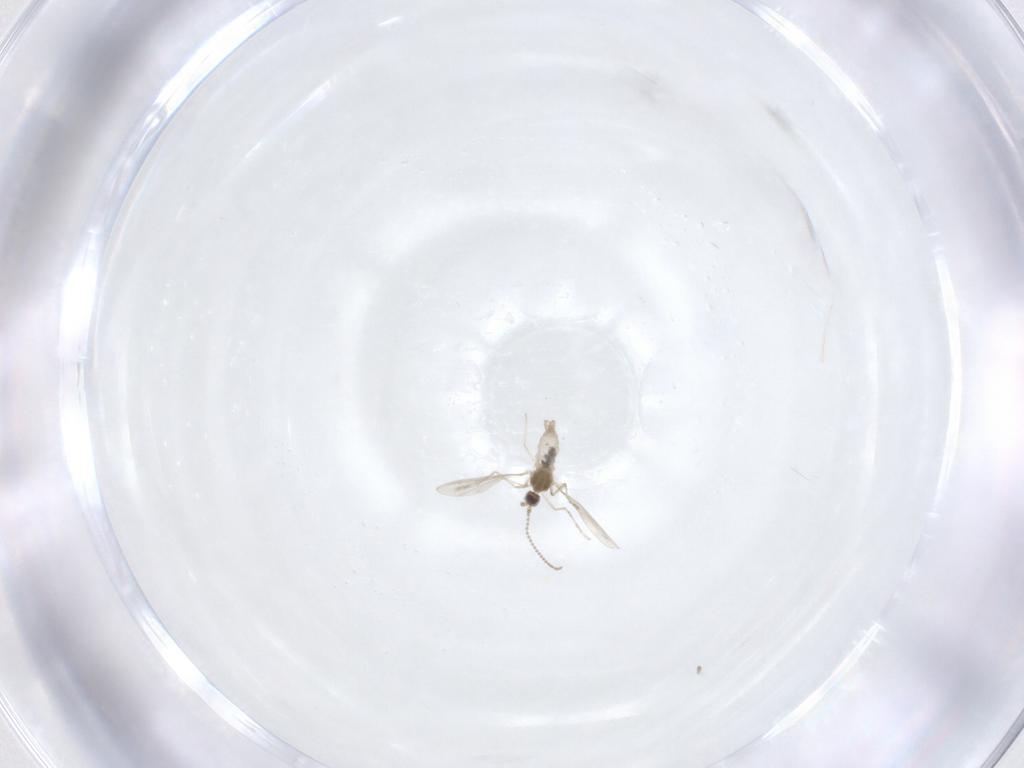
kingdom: Animalia
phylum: Arthropoda
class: Insecta
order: Diptera
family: Cecidomyiidae
